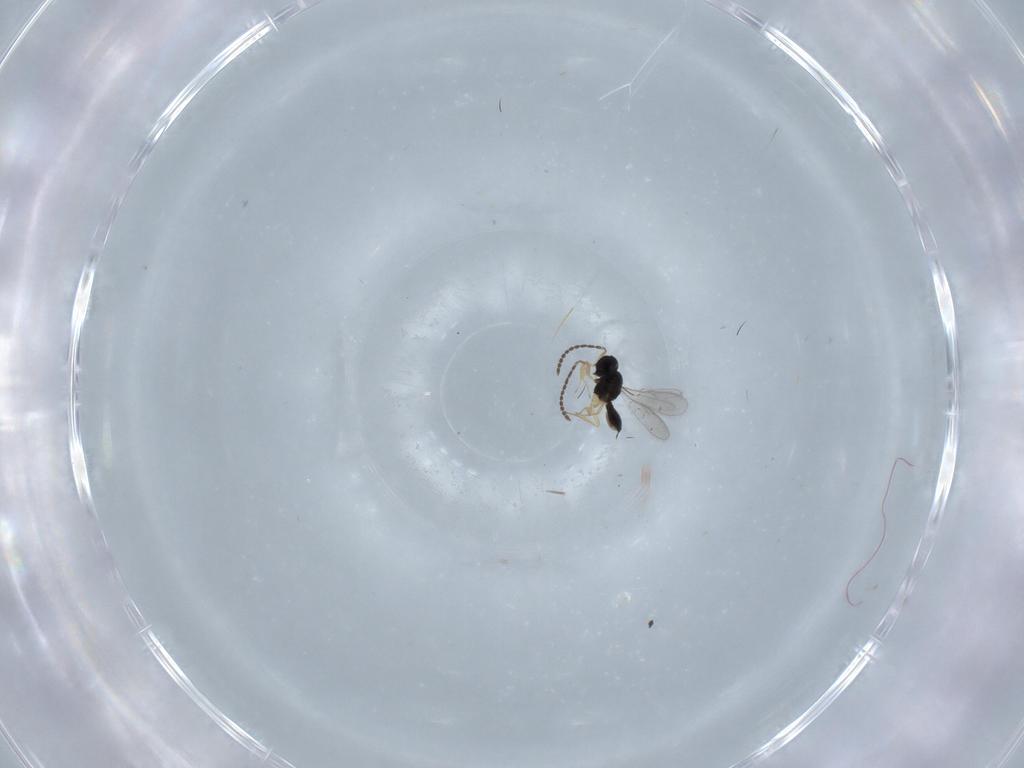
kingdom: Animalia
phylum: Arthropoda
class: Insecta
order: Hymenoptera
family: Scelionidae
